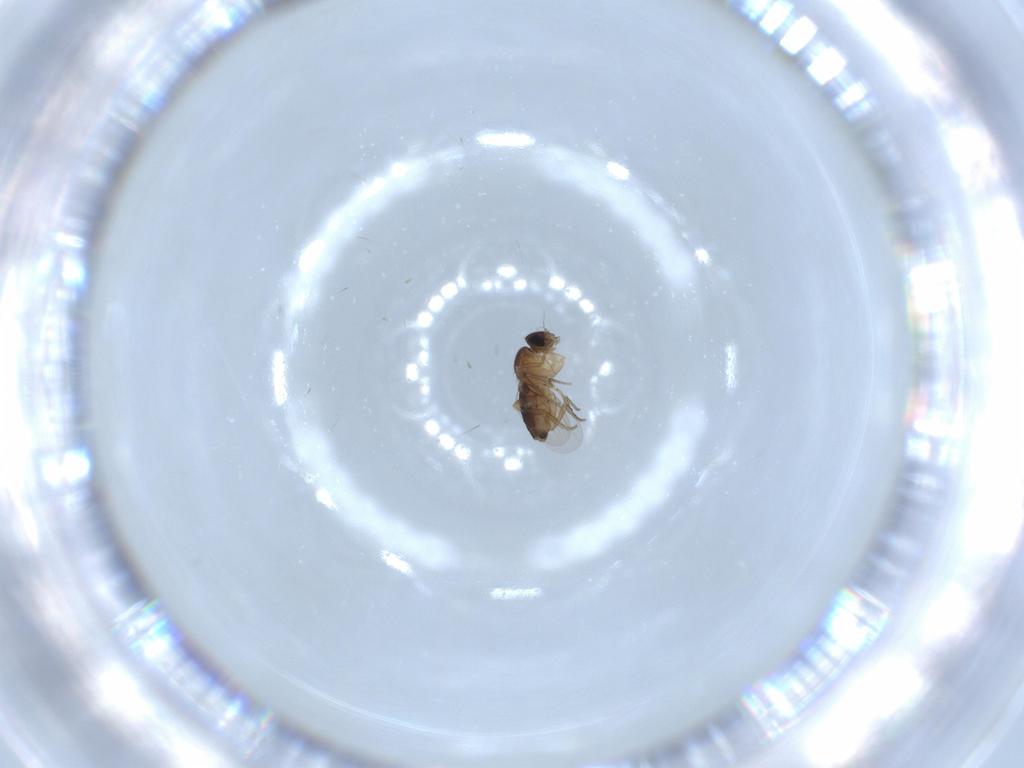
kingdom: Animalia
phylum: Arthropoda
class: Insecta
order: Diptera
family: Phoridae
